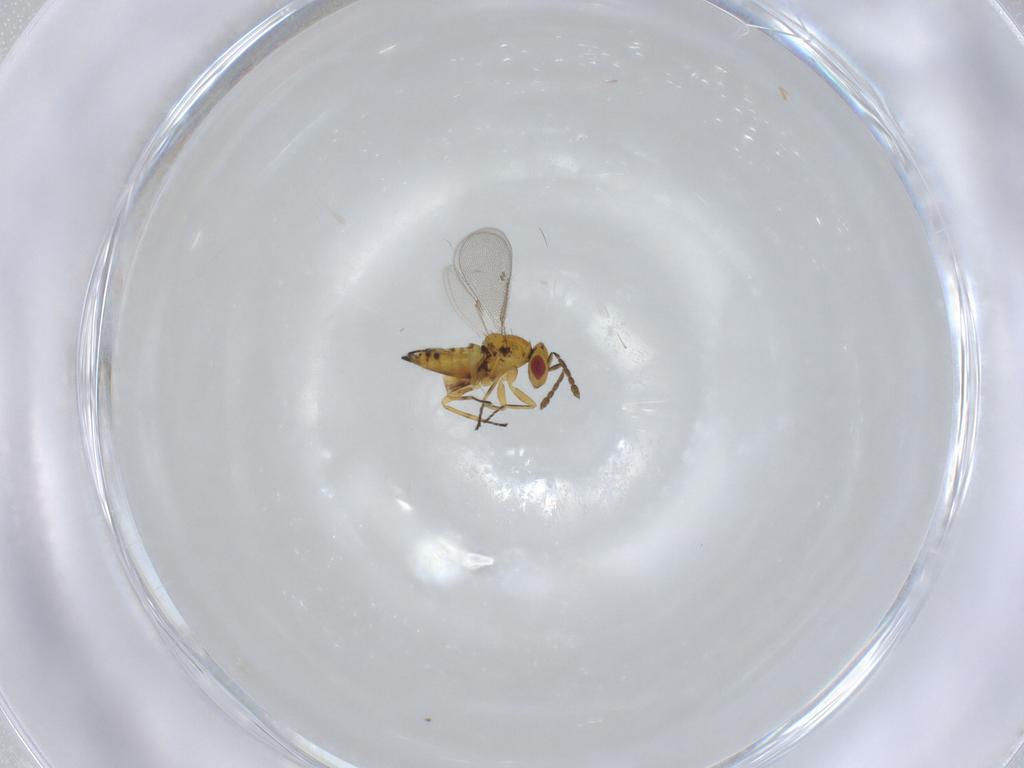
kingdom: Animalia
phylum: Arthropoda
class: Insecta
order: Hymenoptera
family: Eulophidae
